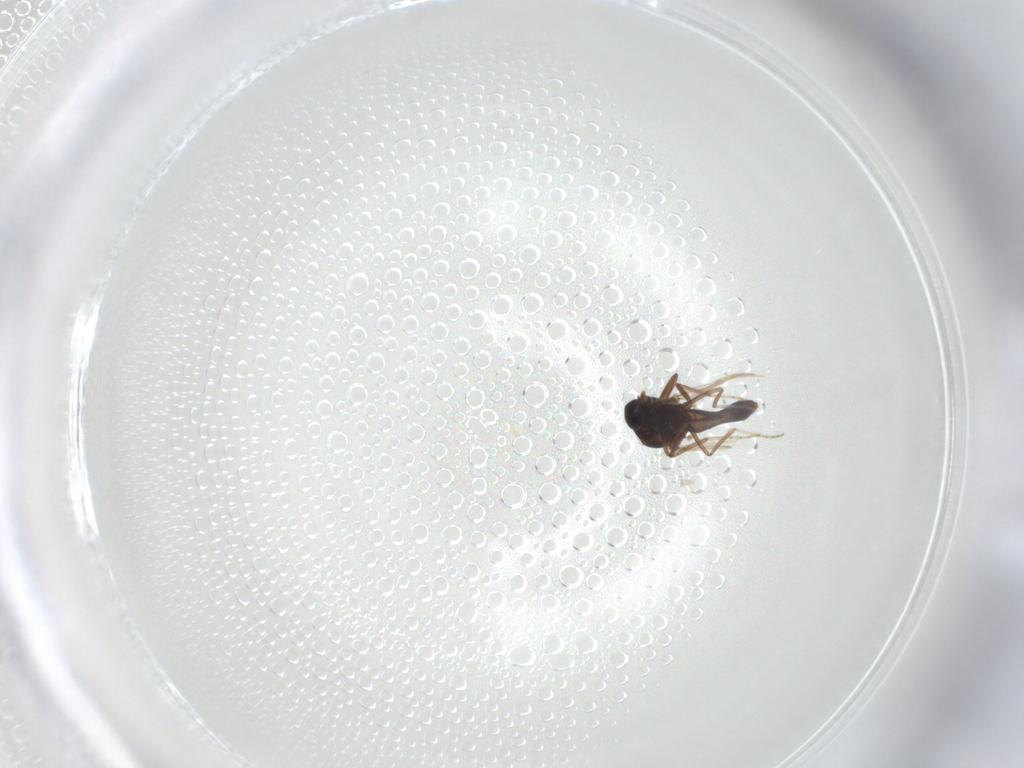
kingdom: Animalia
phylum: Arthropoda
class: Insecta
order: Diptera
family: Ceratopogonidae
